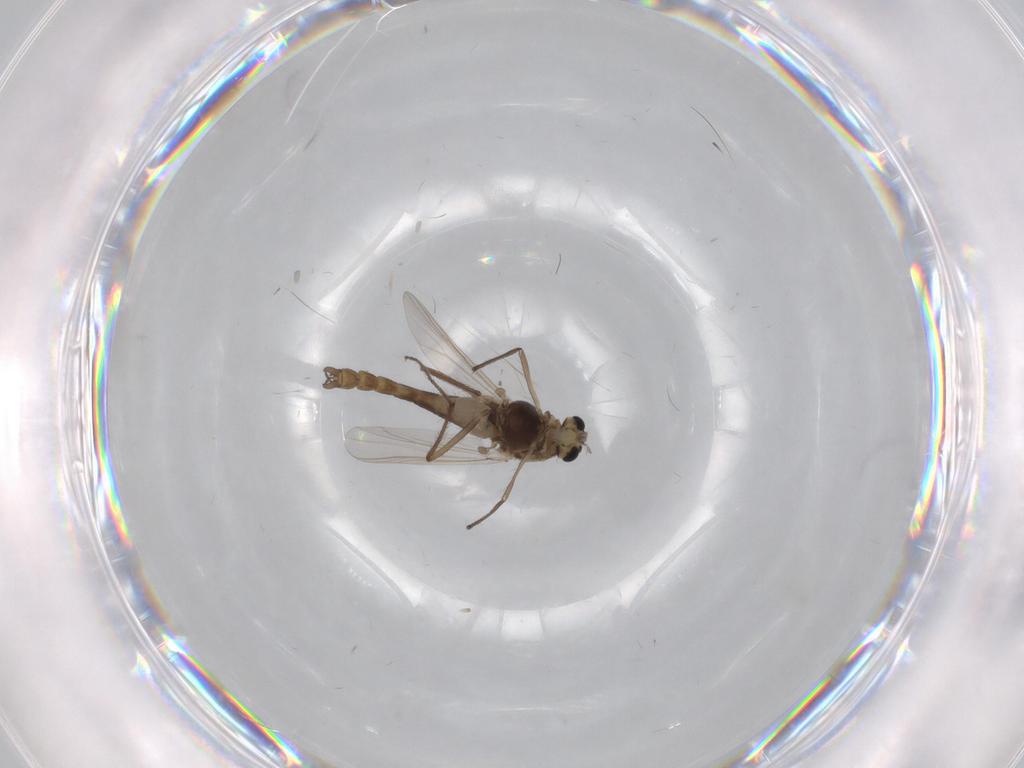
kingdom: Animalia
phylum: Arthropoda
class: Insecta
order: Diptera
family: Chironomidae
